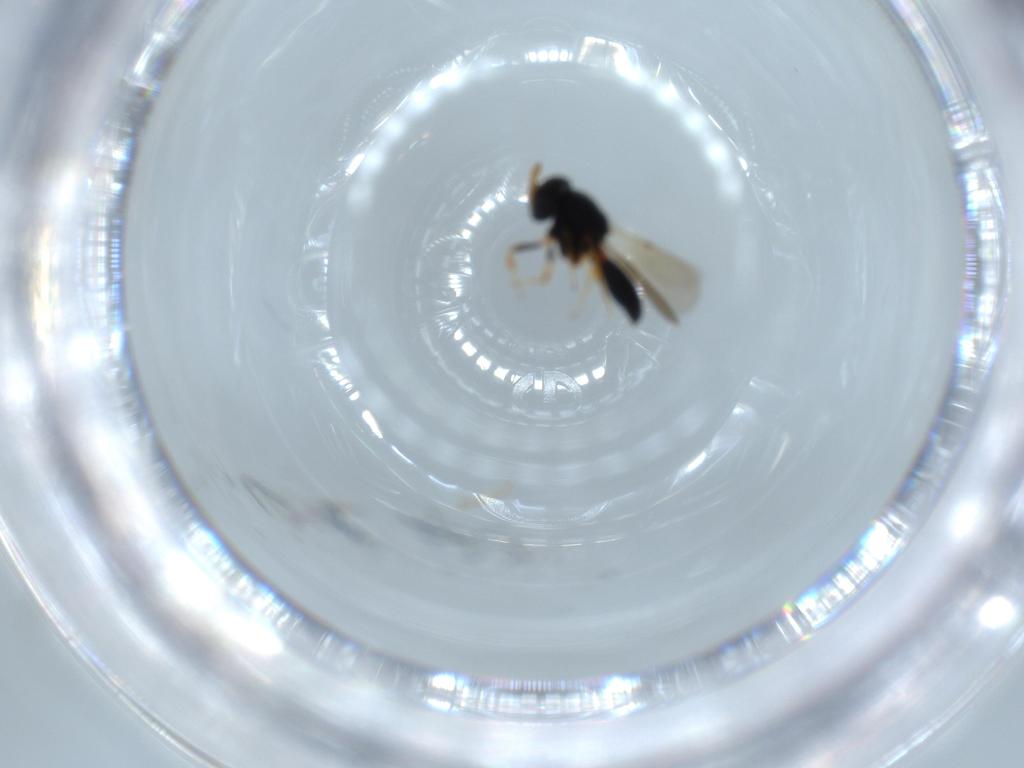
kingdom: Animalia
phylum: Arthropoda
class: Insecta
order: Hymenoptera
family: Scelionidae
